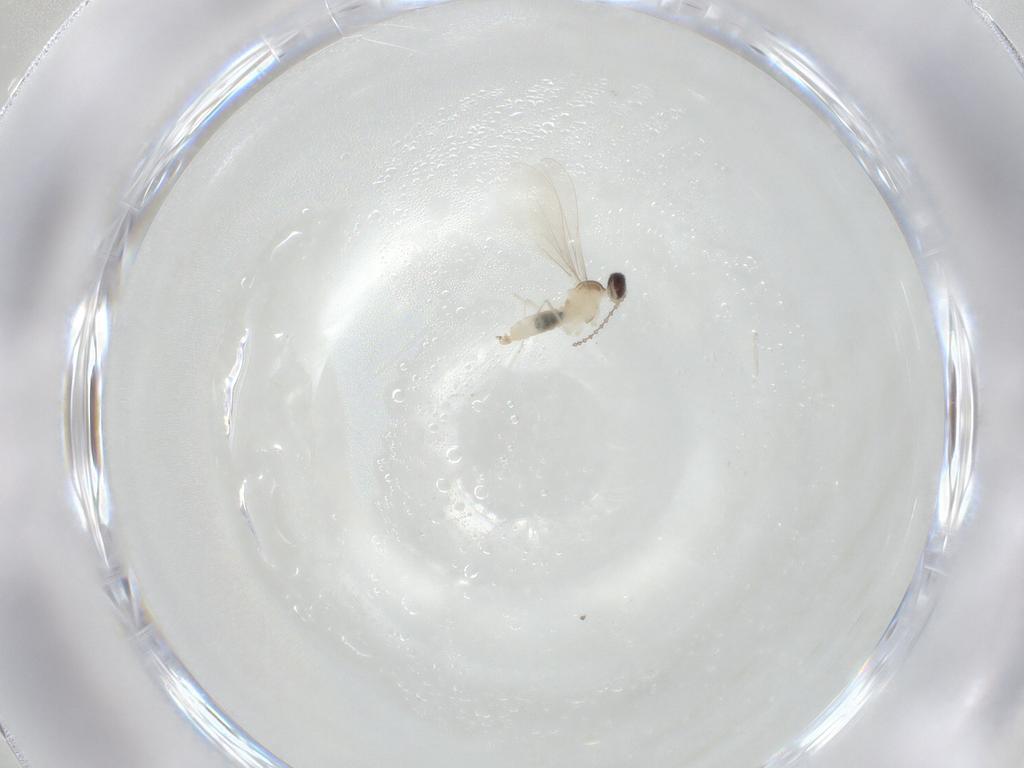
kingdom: Animalia
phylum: Arthropoda
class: Insecta
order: Diptera
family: Cecidomyiidae
